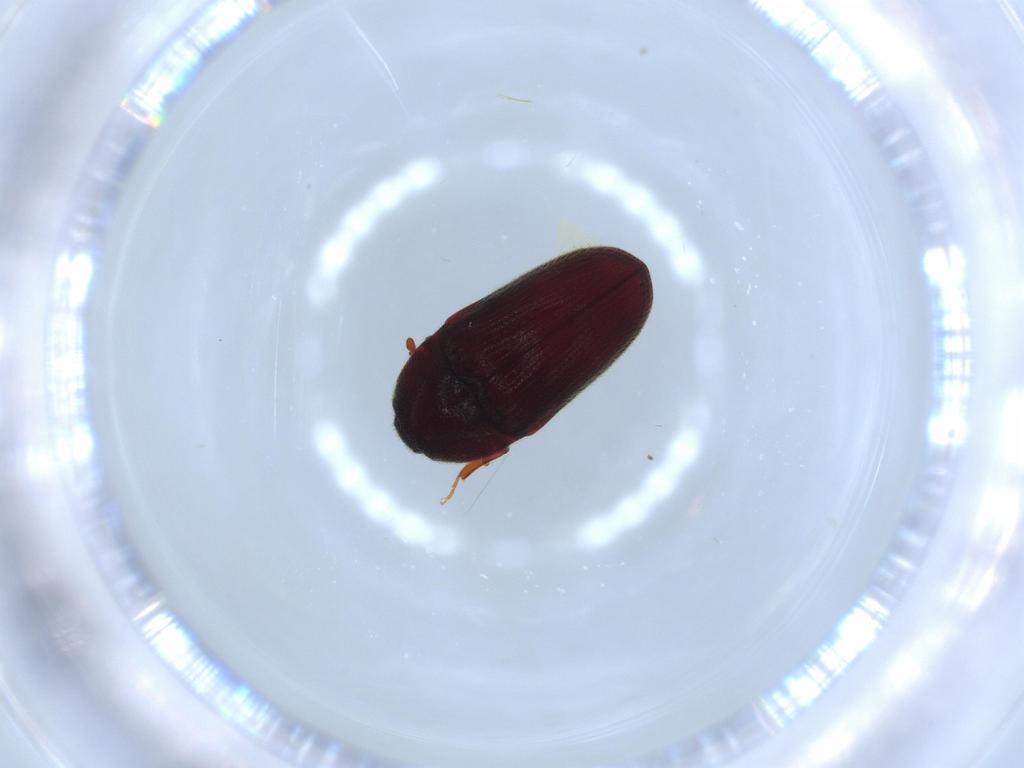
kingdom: Animalia
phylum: Arthropoda
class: Insecta
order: Coleoptera
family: Throscidae
